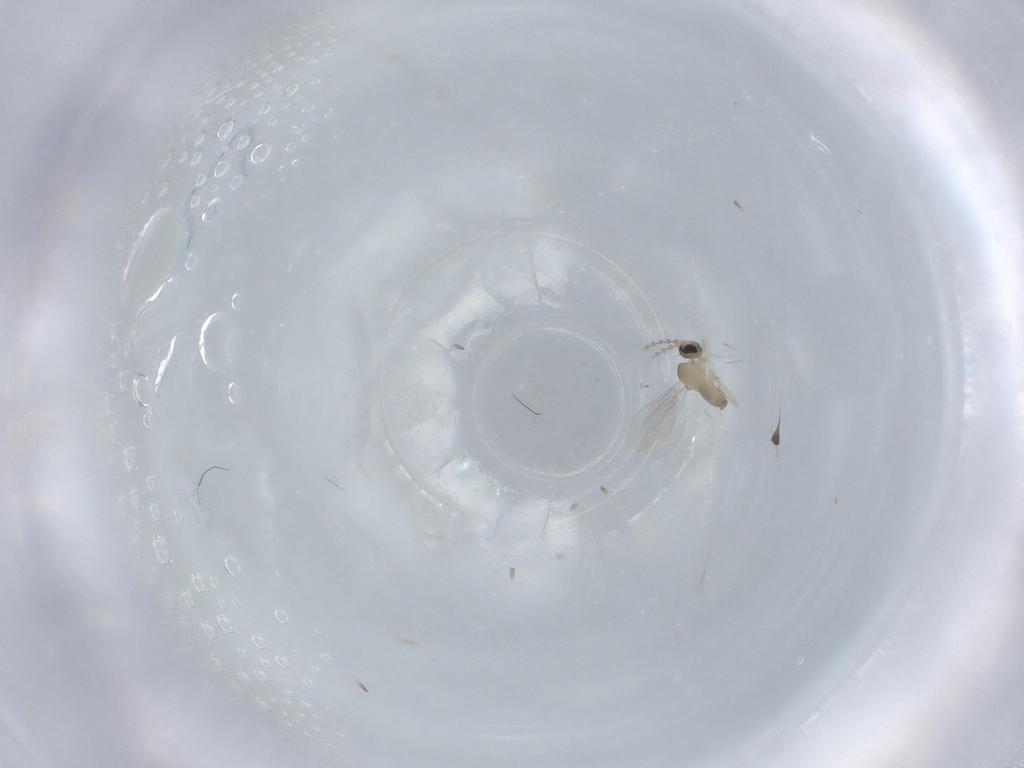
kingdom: Animalia
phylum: Arthropoda
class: Insecta
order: Diptera
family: Cecidomyiidae
